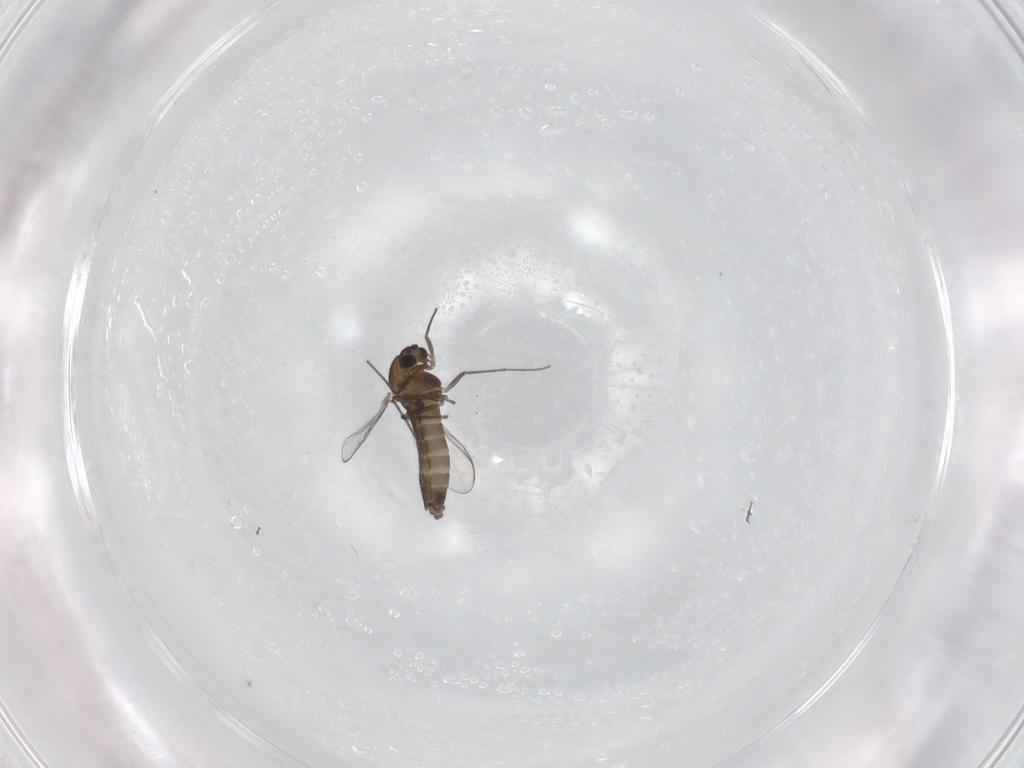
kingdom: Animalia
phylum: Arthropoda
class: Insecta
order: Diptera
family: Chironomidae
